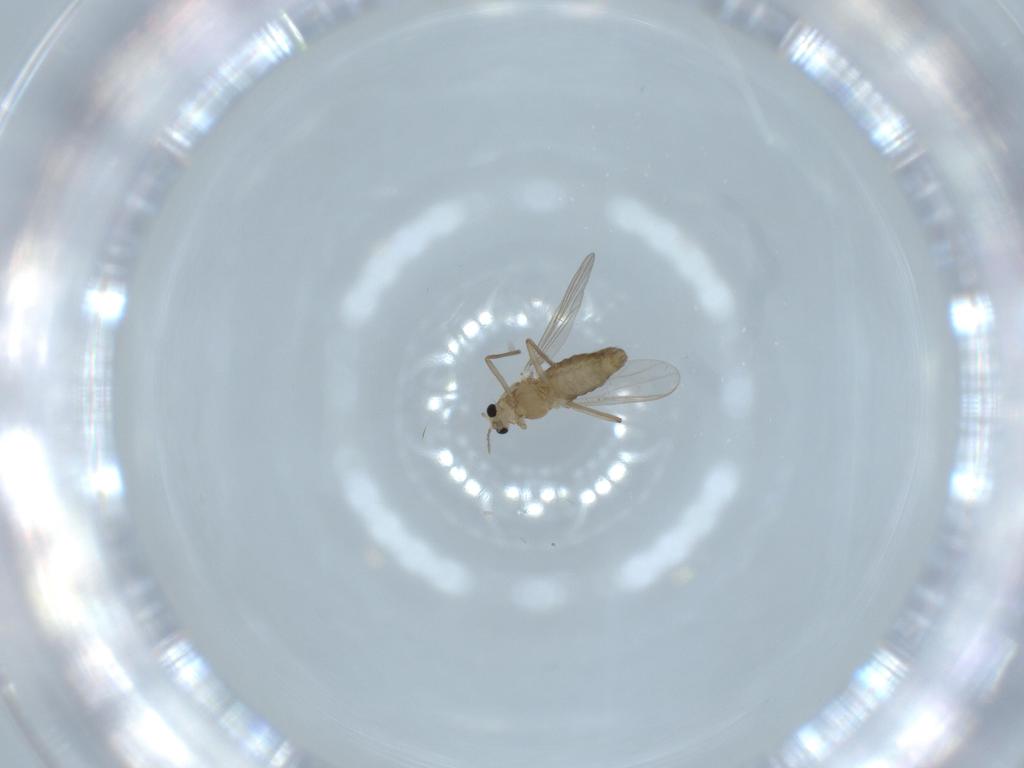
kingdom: Animalia
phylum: Arthropoda
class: Insecta
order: Diptera
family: Chironomidae
